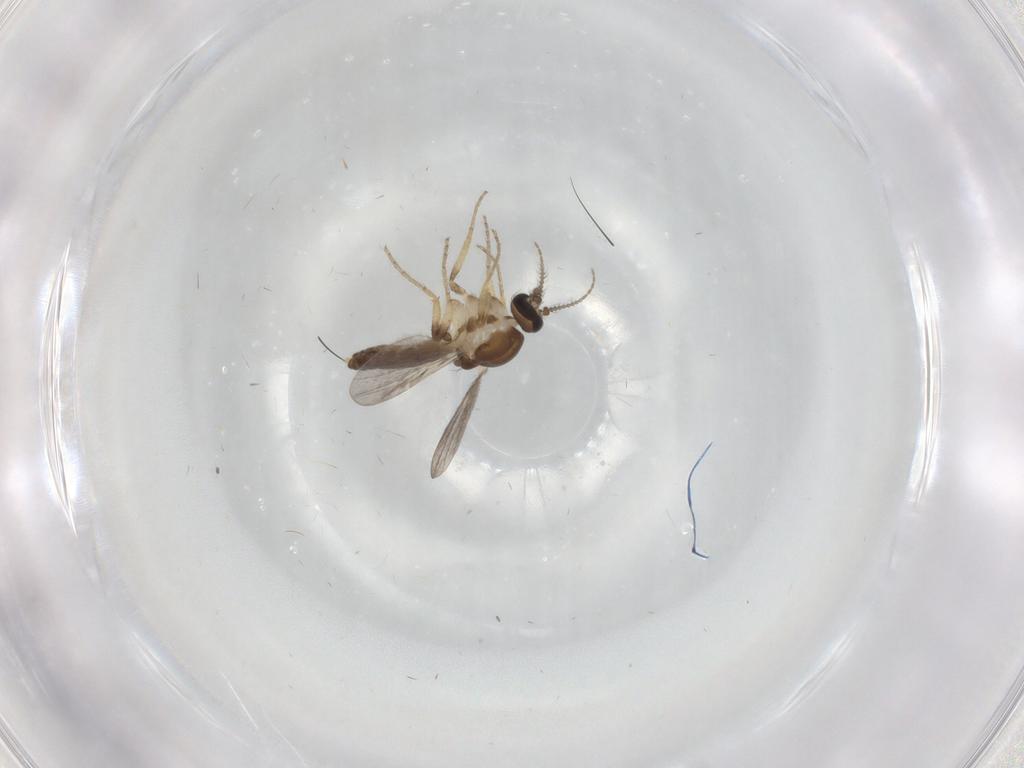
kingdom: Animalia
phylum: Arthropoda
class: Insecta
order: Diptera
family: Ceratopogonidae
